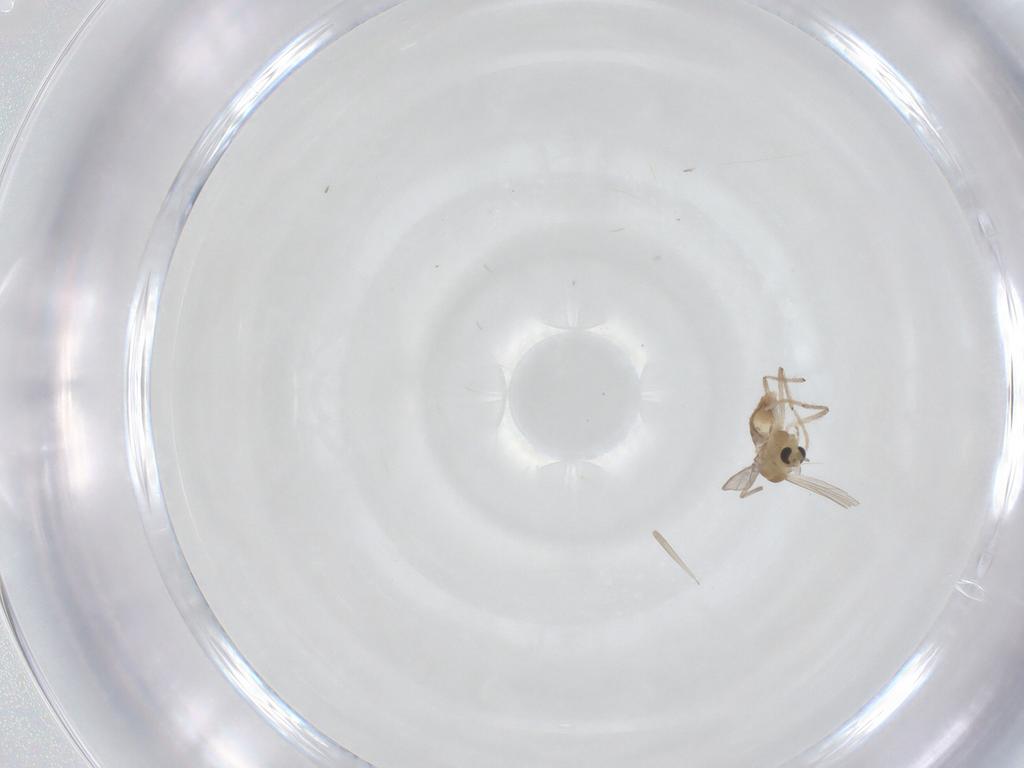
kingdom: Animalia
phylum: Arthropoda
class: Insecta
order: Diptera
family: Chironomidae
